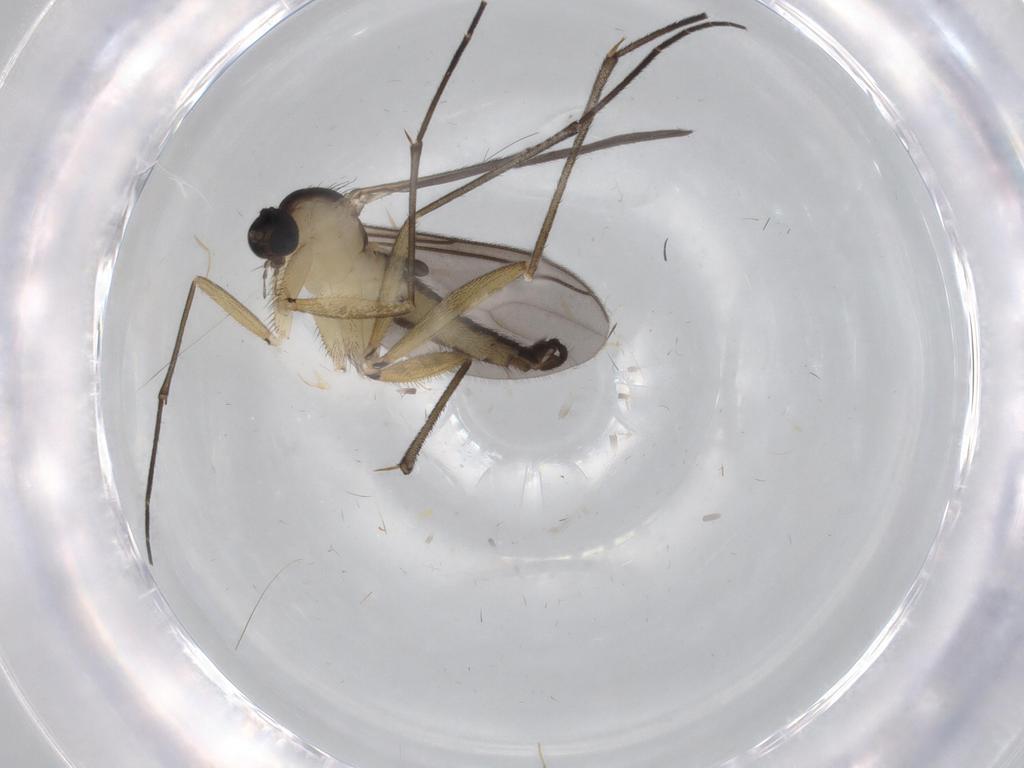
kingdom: Animalia
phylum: Arthropoda
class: Insecta
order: Diptera
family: Sciaridae
